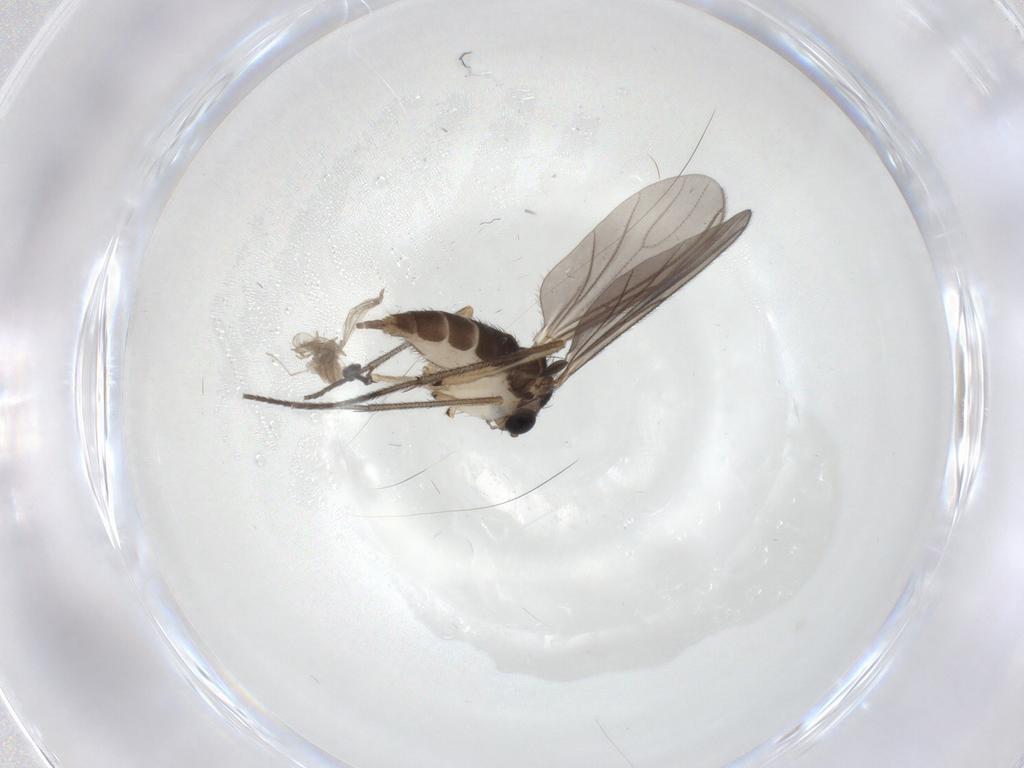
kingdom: Animalia
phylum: Arthropoda
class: Insecta
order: Diptera
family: Sciaridae
